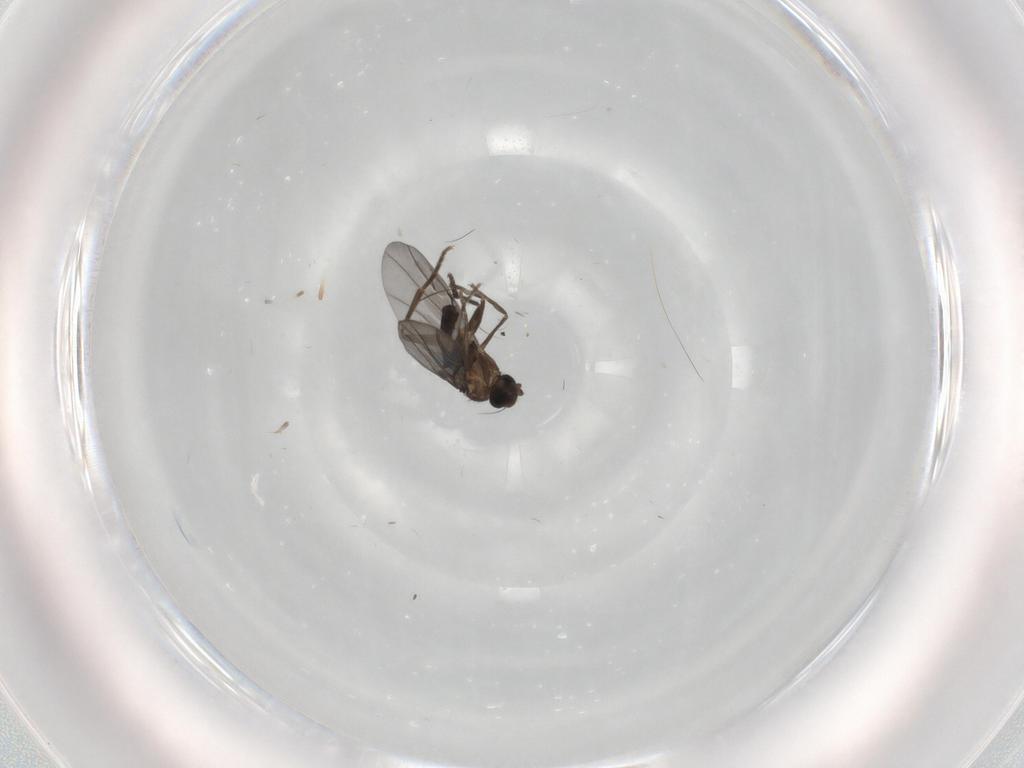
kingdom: Animalia
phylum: Arthropoda
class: Insecta
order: Diptera
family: Phoridae
